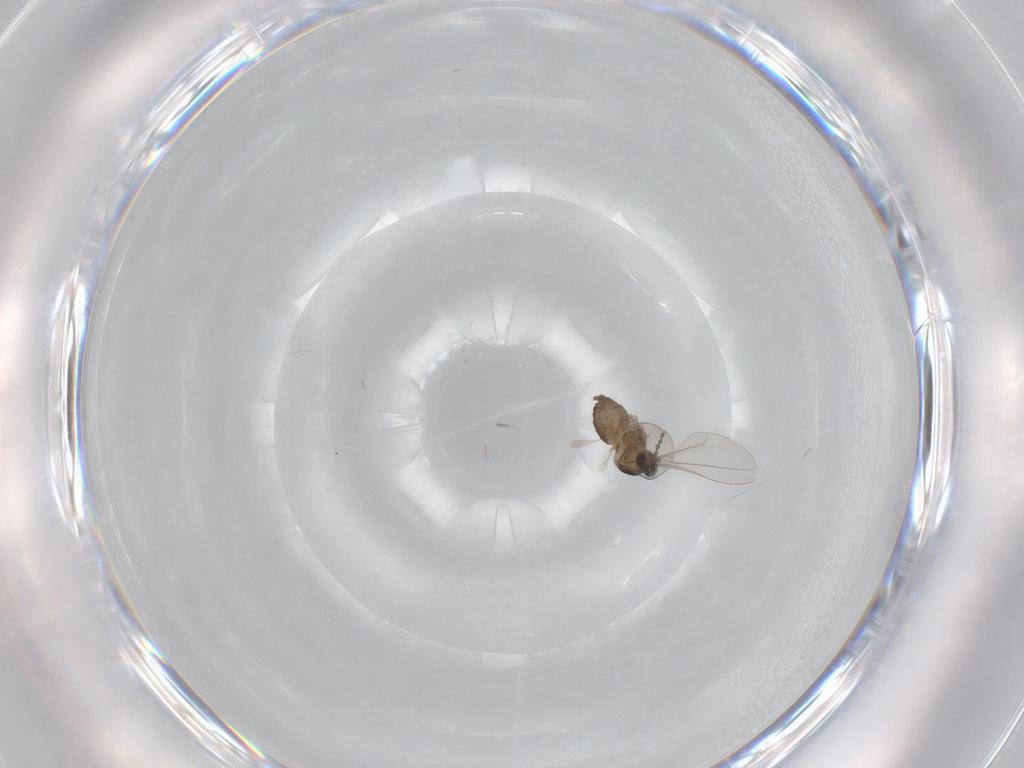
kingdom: Animalia
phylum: Arthropoda
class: Insecta
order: Diptera
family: Cecidomyiidae
